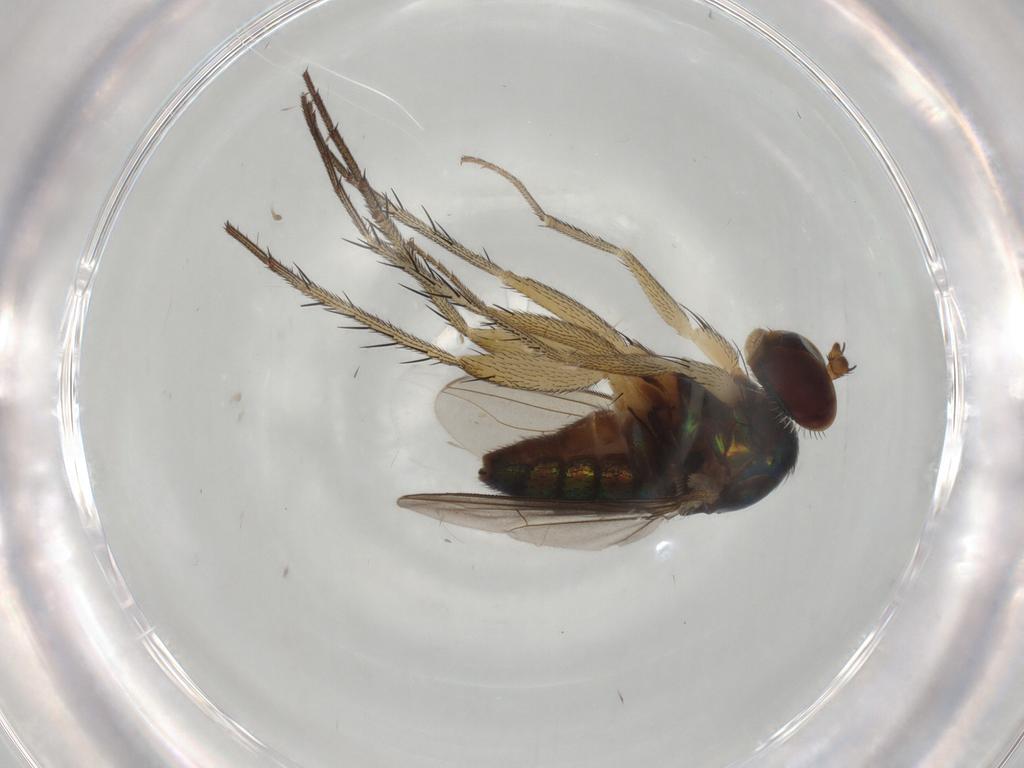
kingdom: Animalia
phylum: Arthropoda
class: Insecta
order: Diptera
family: Dolichopodidae
